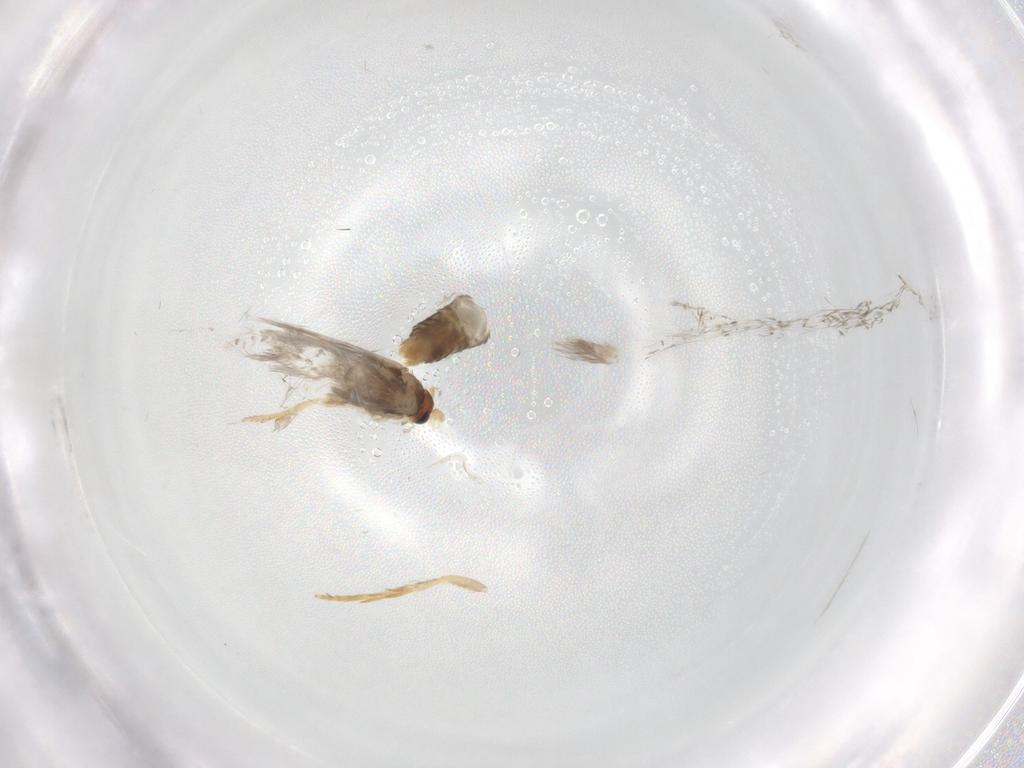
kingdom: Animalia
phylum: Arthropoda
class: Insecta
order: Lepidoptera
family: Nepticulidae
